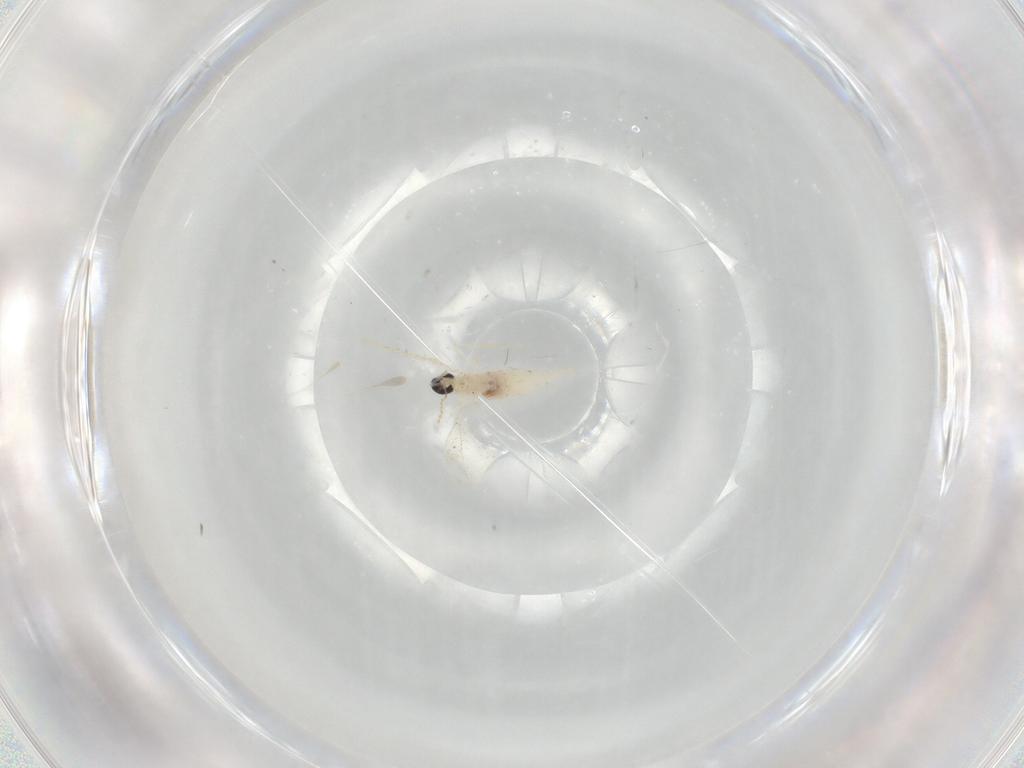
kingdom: Animalia
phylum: Arthropoda
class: Insecta
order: Diptera
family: Cecidomyiidae
